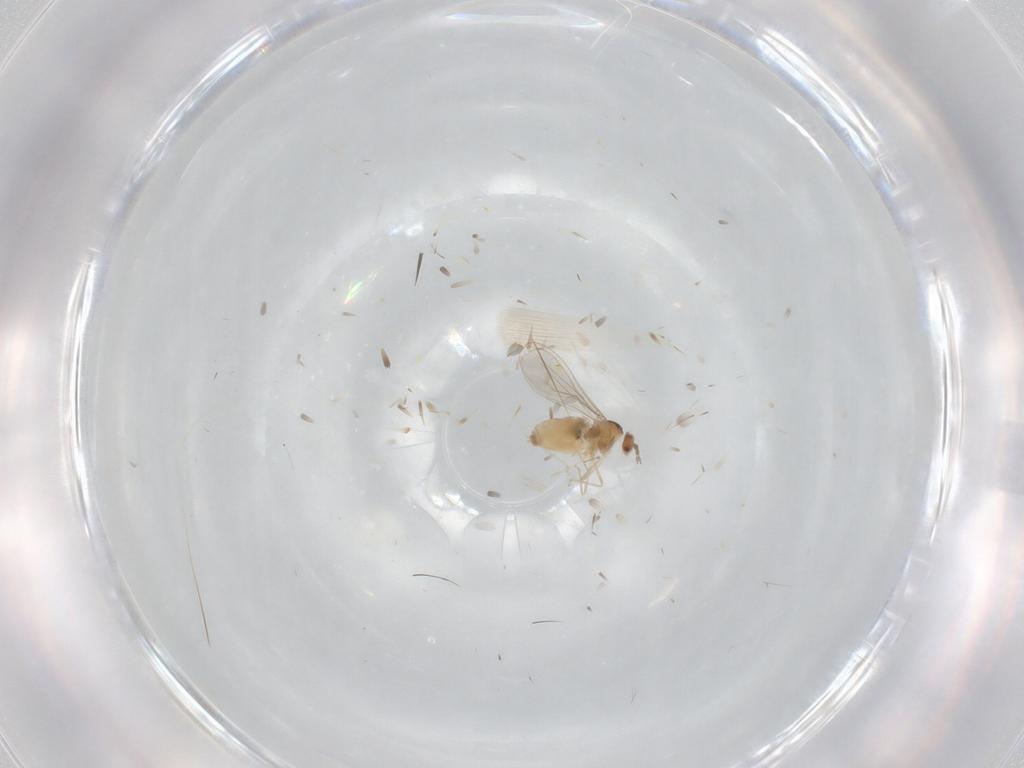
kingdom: Animalia
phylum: Arthropoda
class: Insecta
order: Diptera
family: Cecidomyiidae
